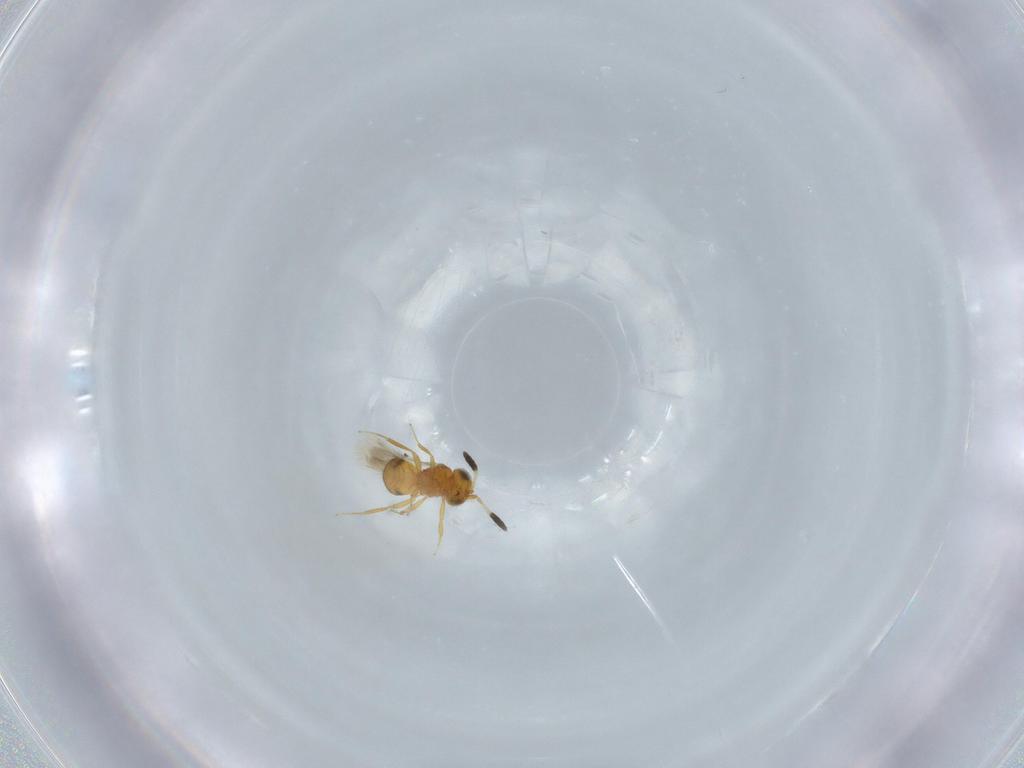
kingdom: Animalia
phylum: Arthropoda
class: Insecta
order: Hymenoptera
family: Scelionidae
